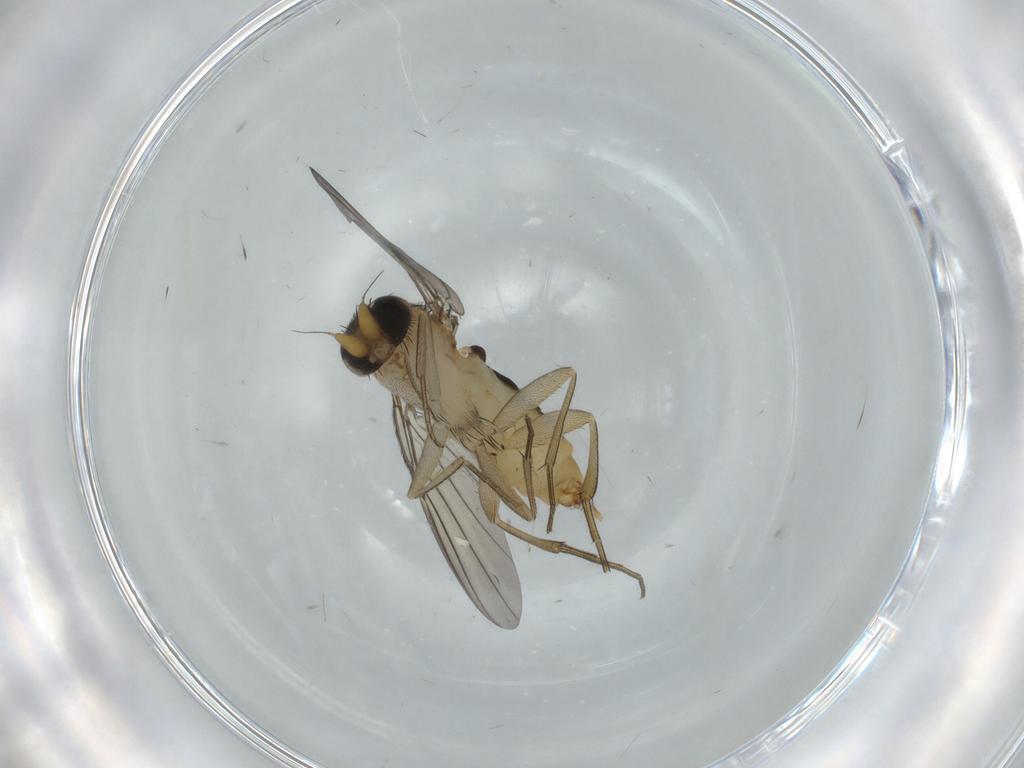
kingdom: Animalia
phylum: Arthropoda
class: Insecta
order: Diptera
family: Phoridae
